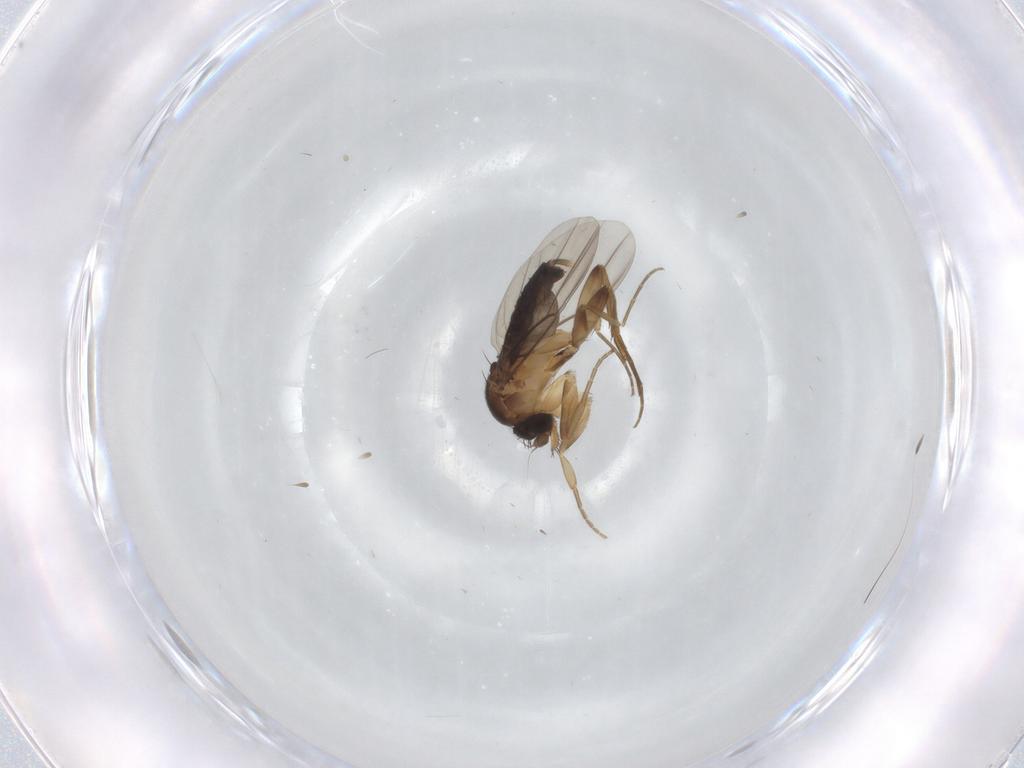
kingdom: Animalia
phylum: Arthropoda
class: Insecta
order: Diptera
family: Phoridae
